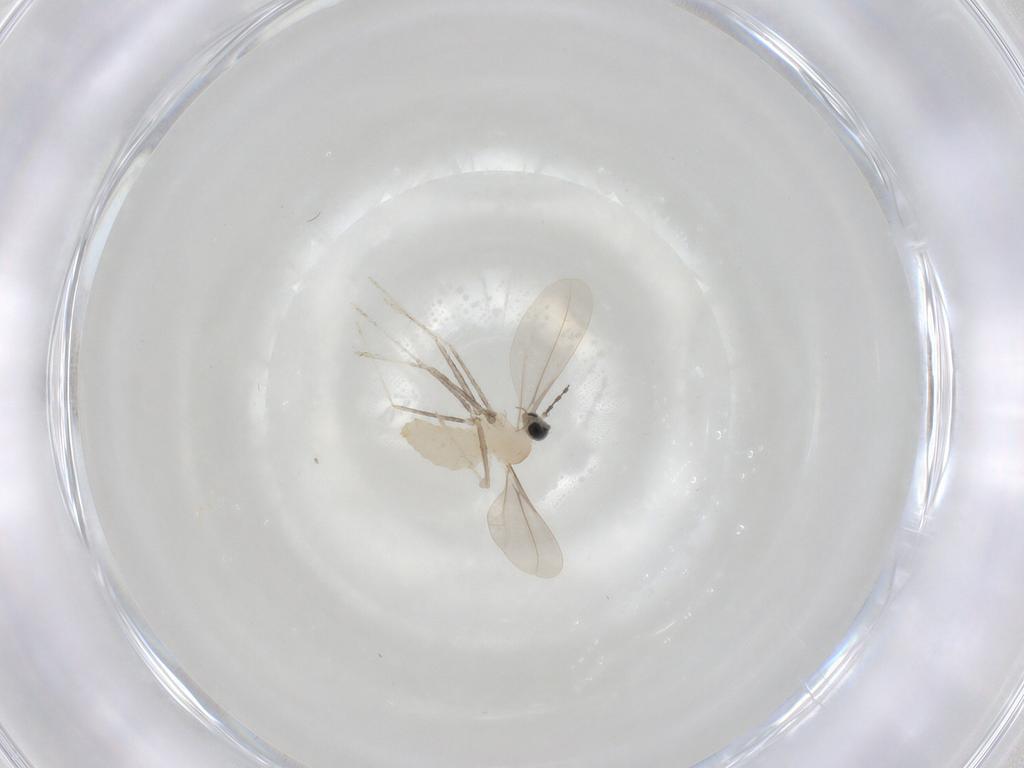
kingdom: Animalia
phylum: Arthropoda
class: Insecta
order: Diptera
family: Cecidomyiidae
